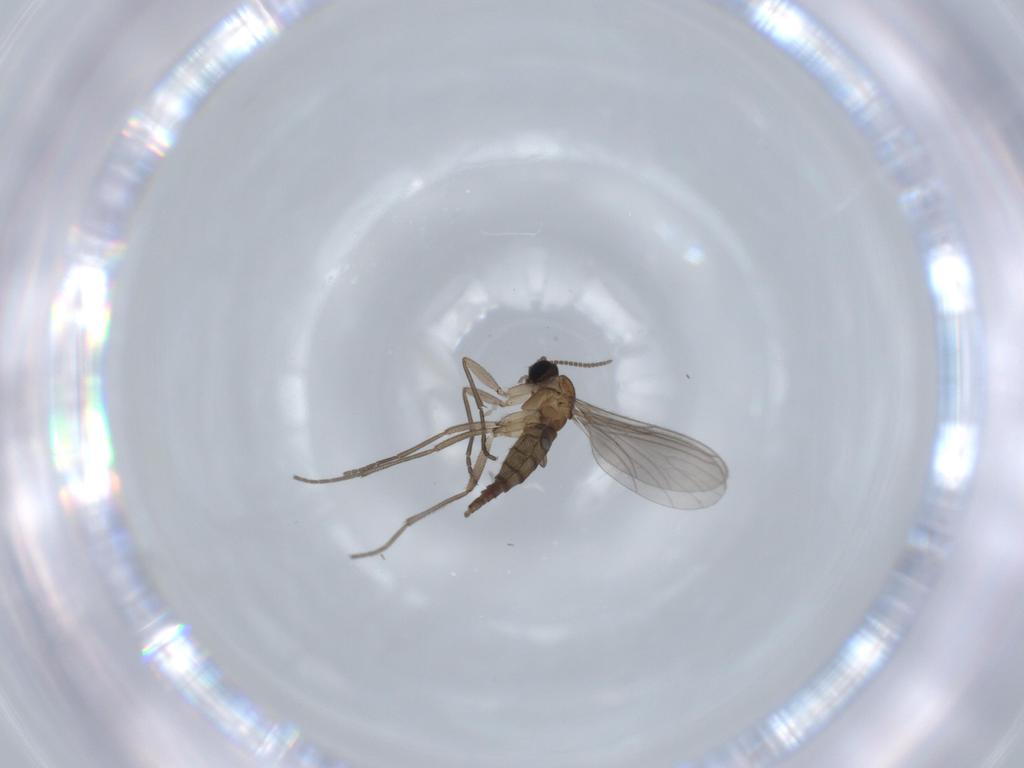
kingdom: Animalia
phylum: Arthropoda
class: Insecta
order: Diptera
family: Sciaridae
